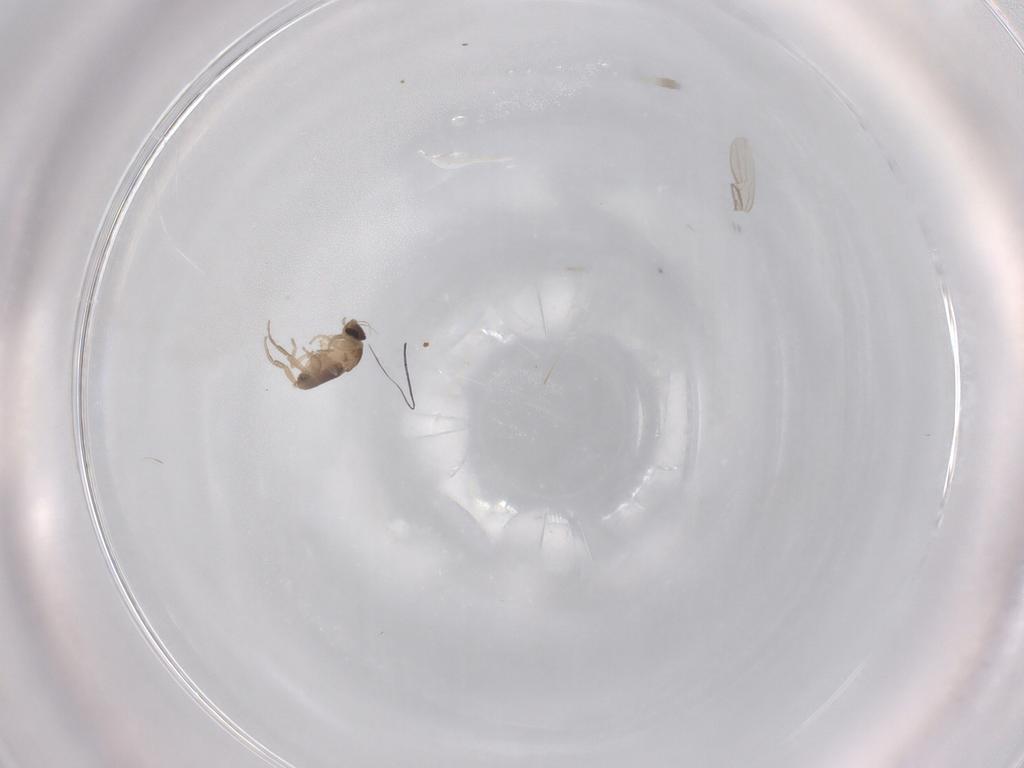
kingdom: Animalia
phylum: Arthropoda
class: Insecta
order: Diptera
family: Phoridae
